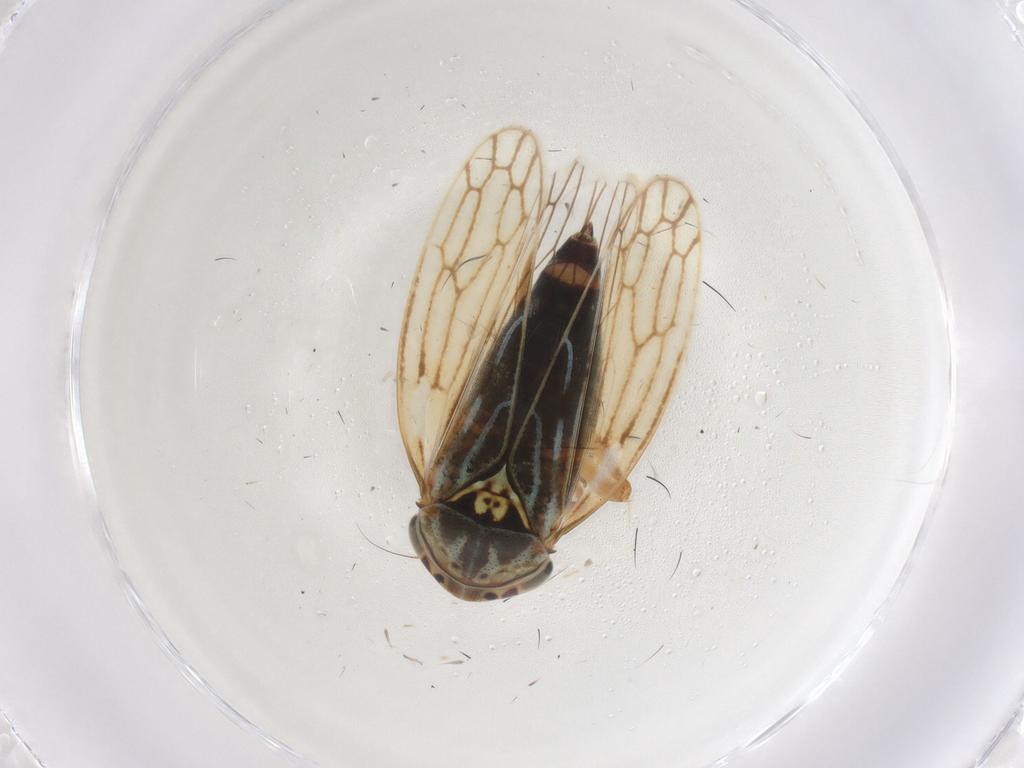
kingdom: Animalia
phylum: Arthropoda
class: Insecta
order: Hemiptera
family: Cicadellidae
